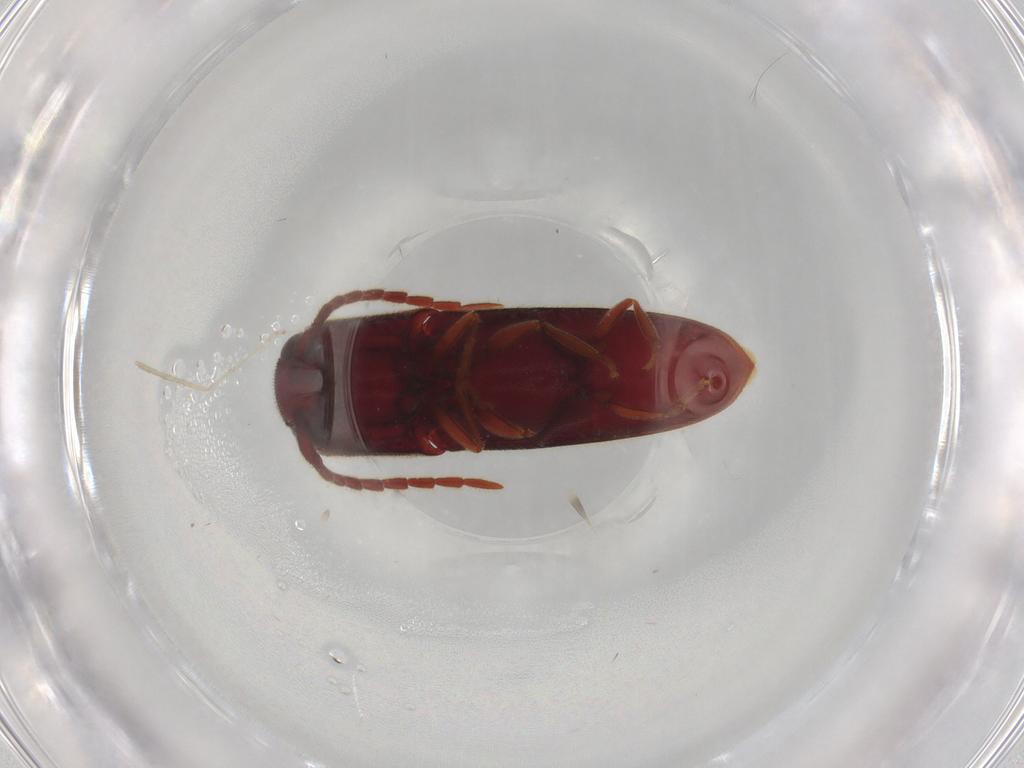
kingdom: Animalia
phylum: Arthropoda
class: Insecta
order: Coleoptera
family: Eucnemidae
